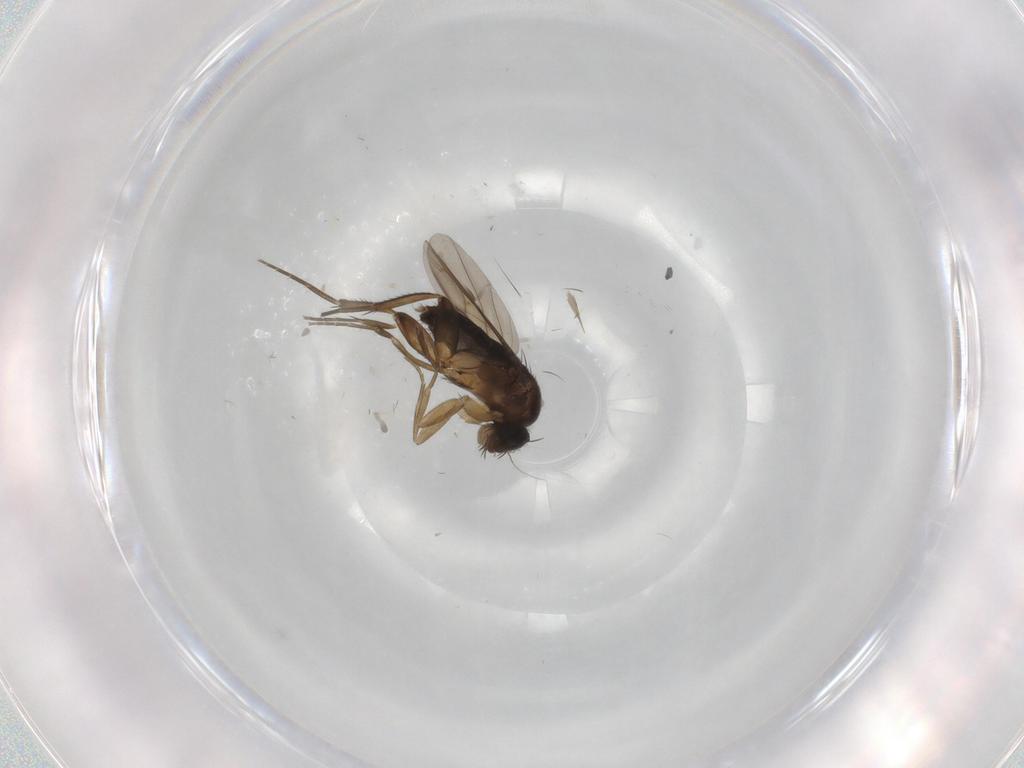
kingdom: Animalia
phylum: Arthropoda
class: Insecta
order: Diptera
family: Phoridae
